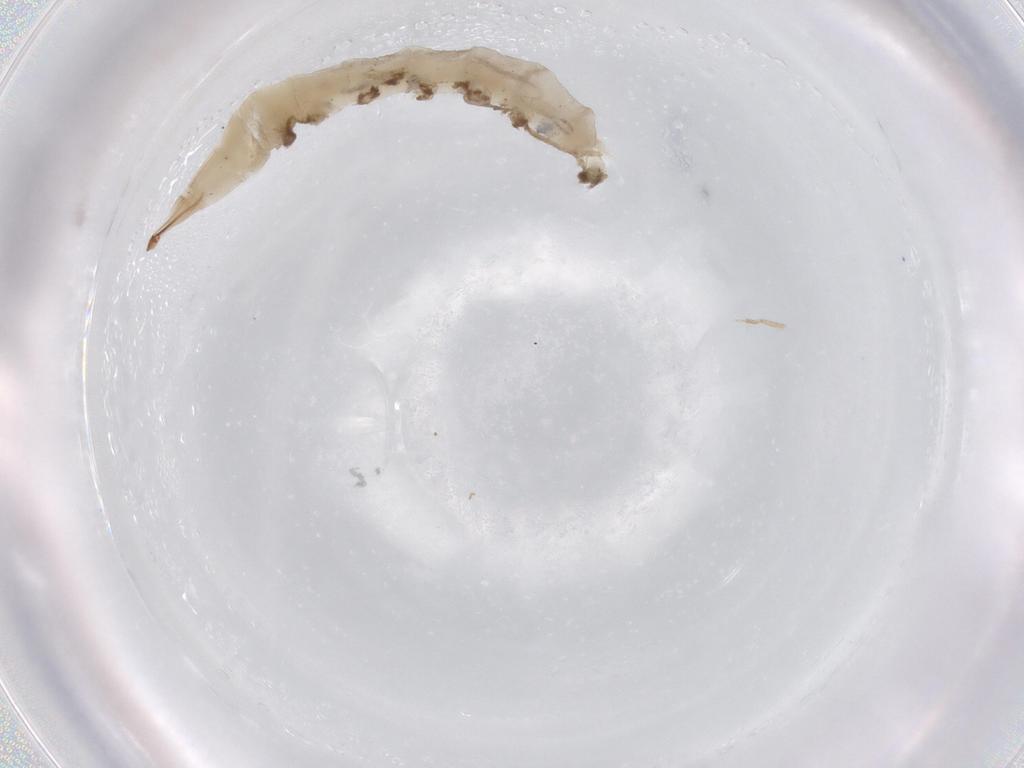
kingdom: Animalia
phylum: Arthropoda
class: Insecta
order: Diptera
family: Empididae
